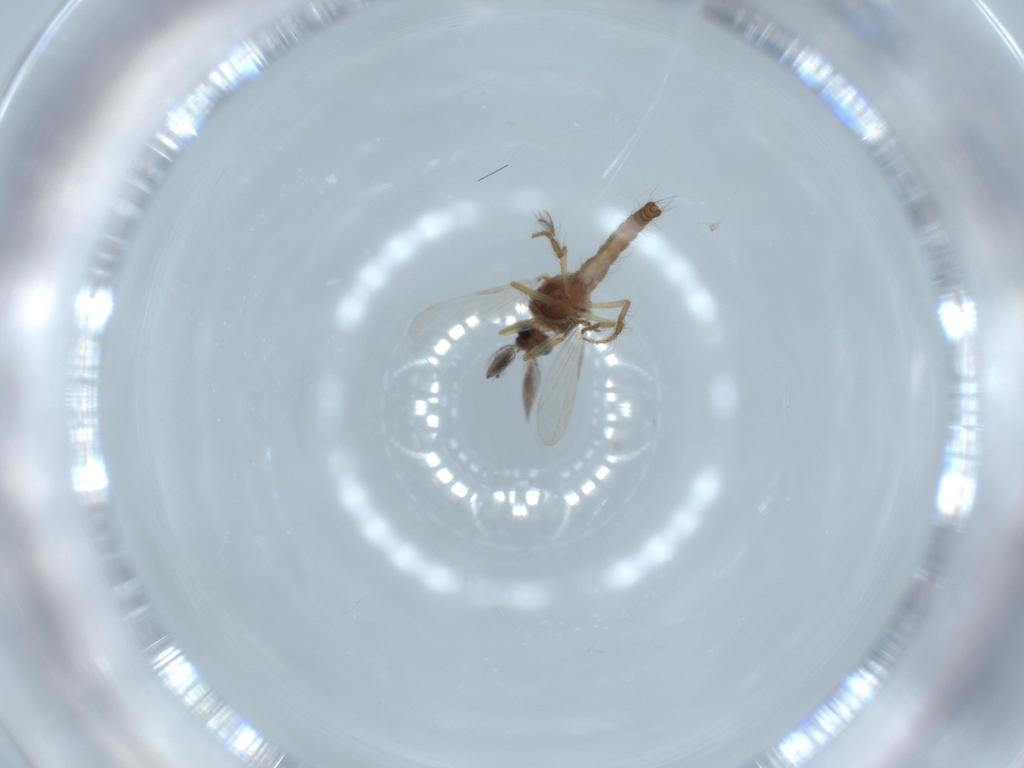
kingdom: Animalia
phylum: Arthropoda
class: Insecta
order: Diptera
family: Ceratopogonidae
